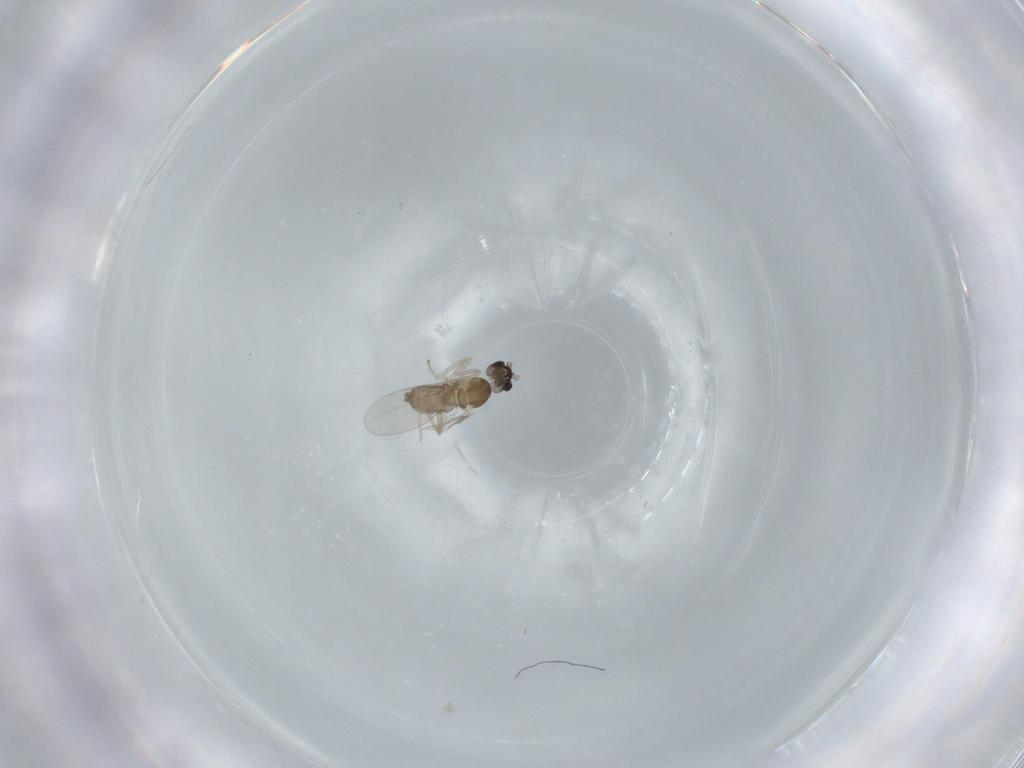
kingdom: Animalia
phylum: Arthropoda
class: Insecta
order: Diptera
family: Cecidomyiidae
